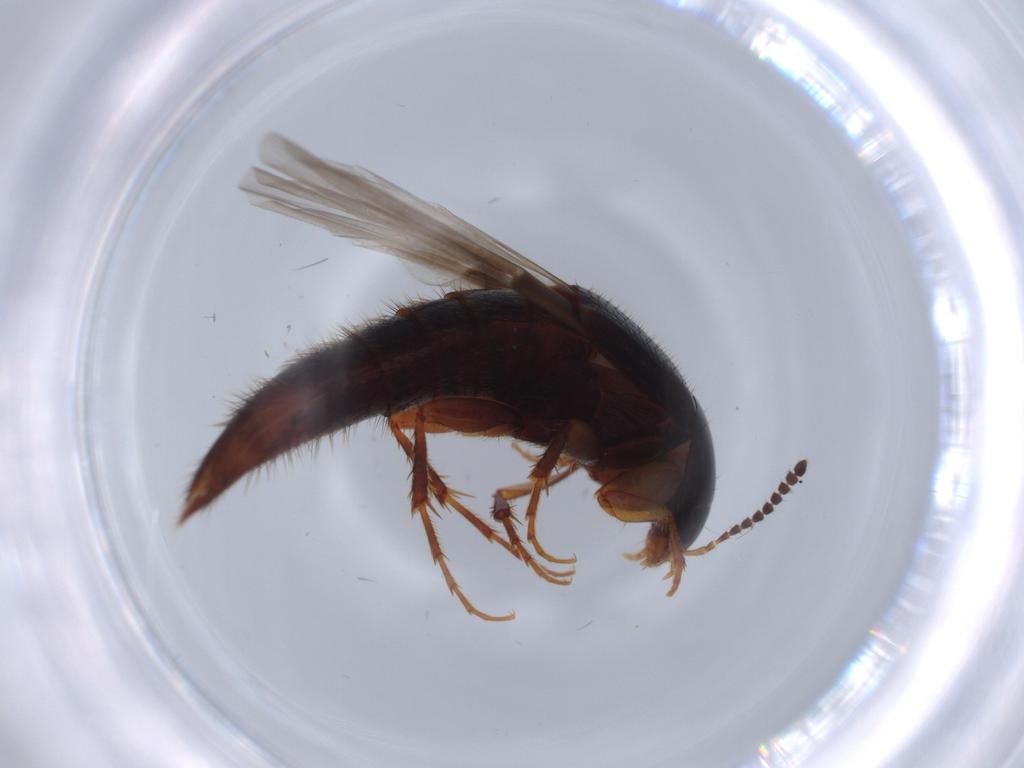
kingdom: Animalia
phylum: Arthropoda
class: Insecta
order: Coleoptera
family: Staphylinidae
